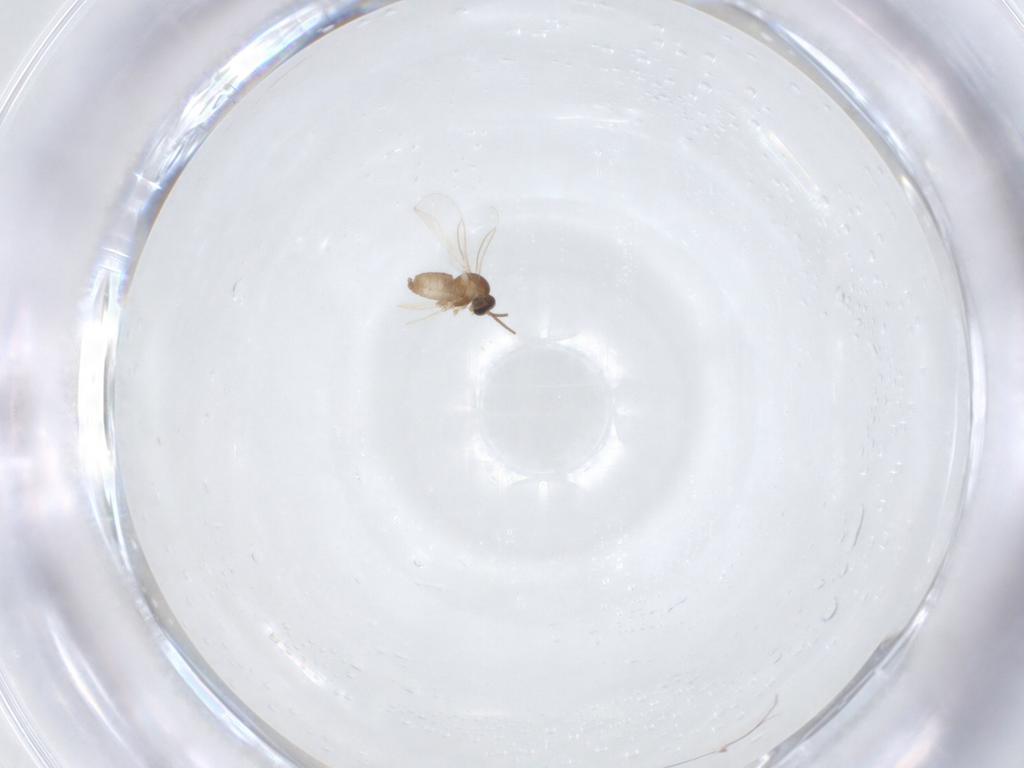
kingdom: Animalia
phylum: Arthropoda
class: Insecta
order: Diptera
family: Cecidomyiidae
